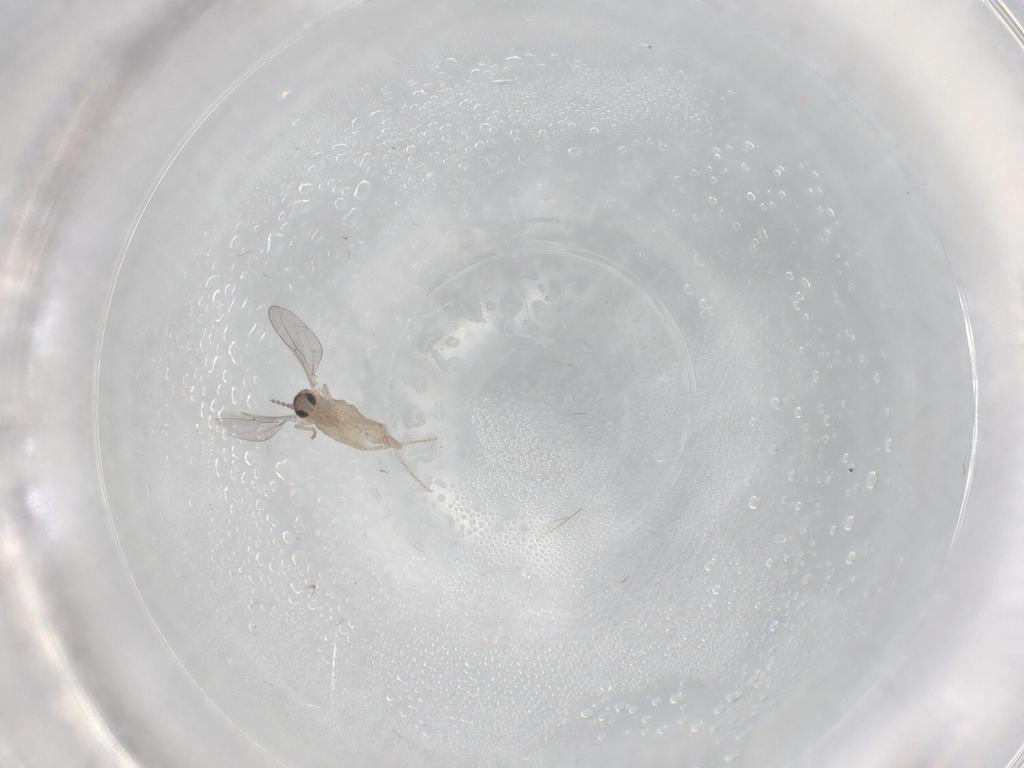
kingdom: Animalia
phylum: Arthropoda
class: Insecta
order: Diptera
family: Cecidomyiidae
